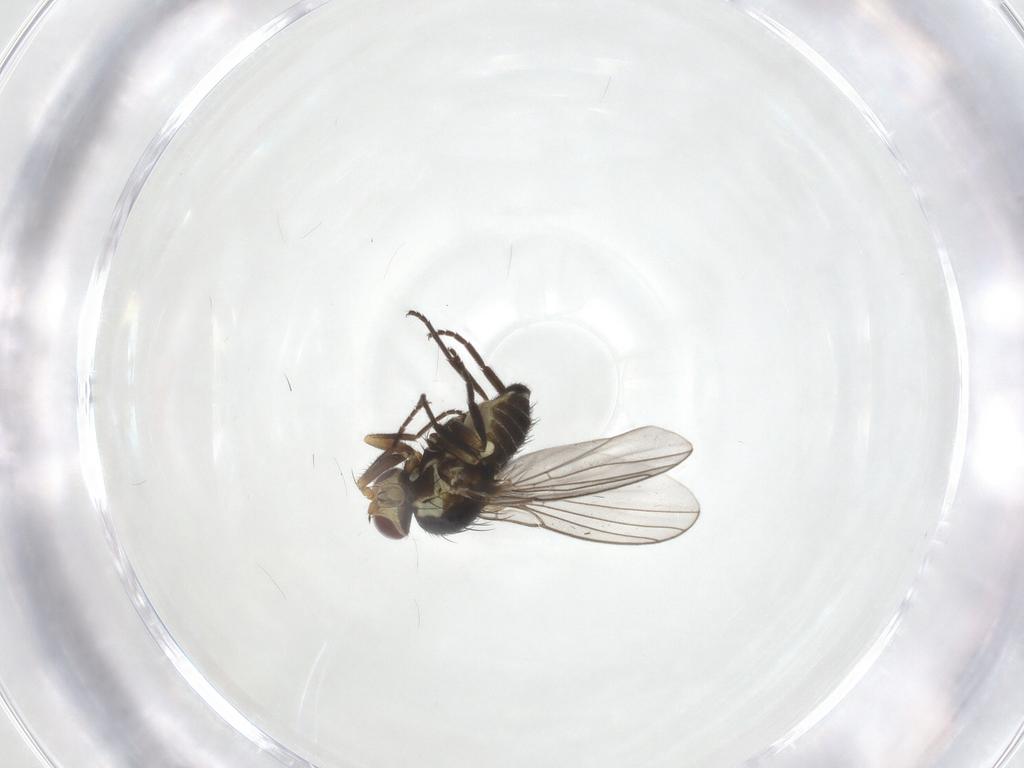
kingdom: Animalia
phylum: Arthropoda
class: Insecta
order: Diptera
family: Agromyzidae
